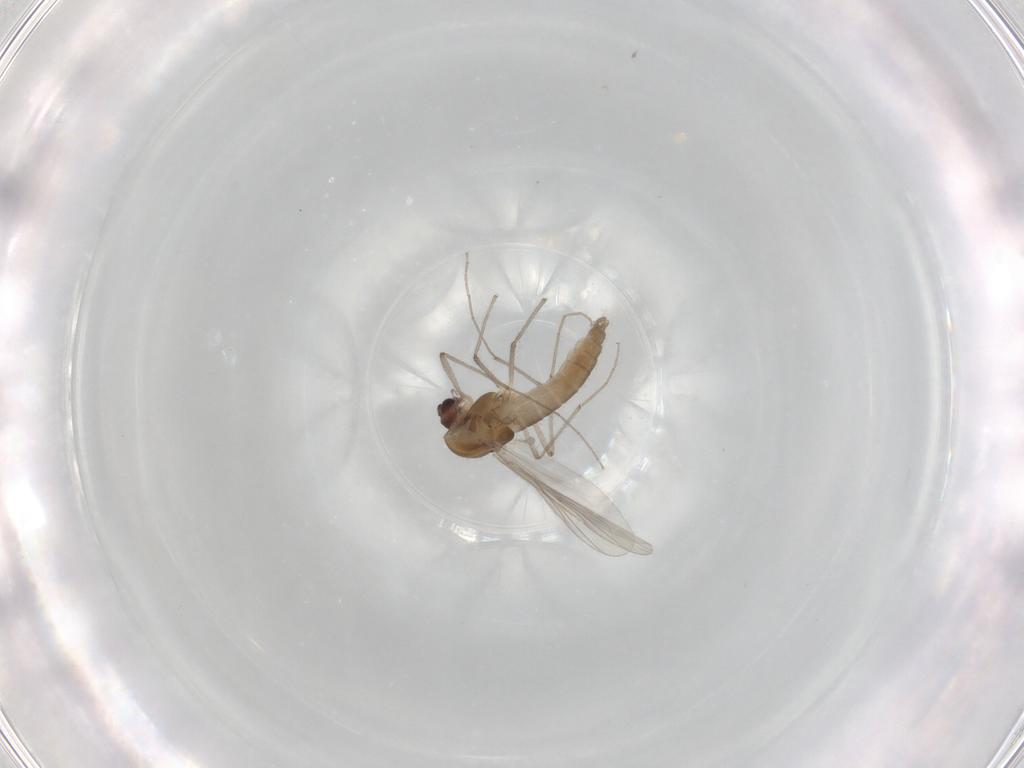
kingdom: Animalia
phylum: Arthropoda
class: Insecta
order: Diptera
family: Chironomidae
